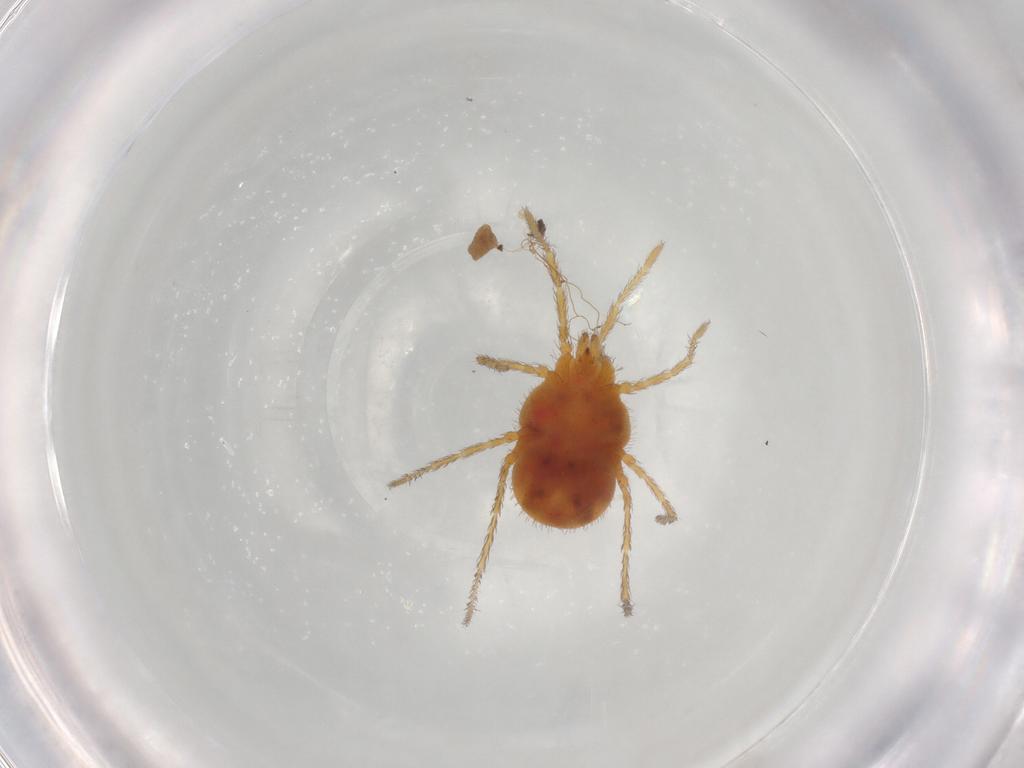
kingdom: Animalia
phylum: Arthropoda
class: Arachnida
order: Trombidiformes
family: Erythraeidae
